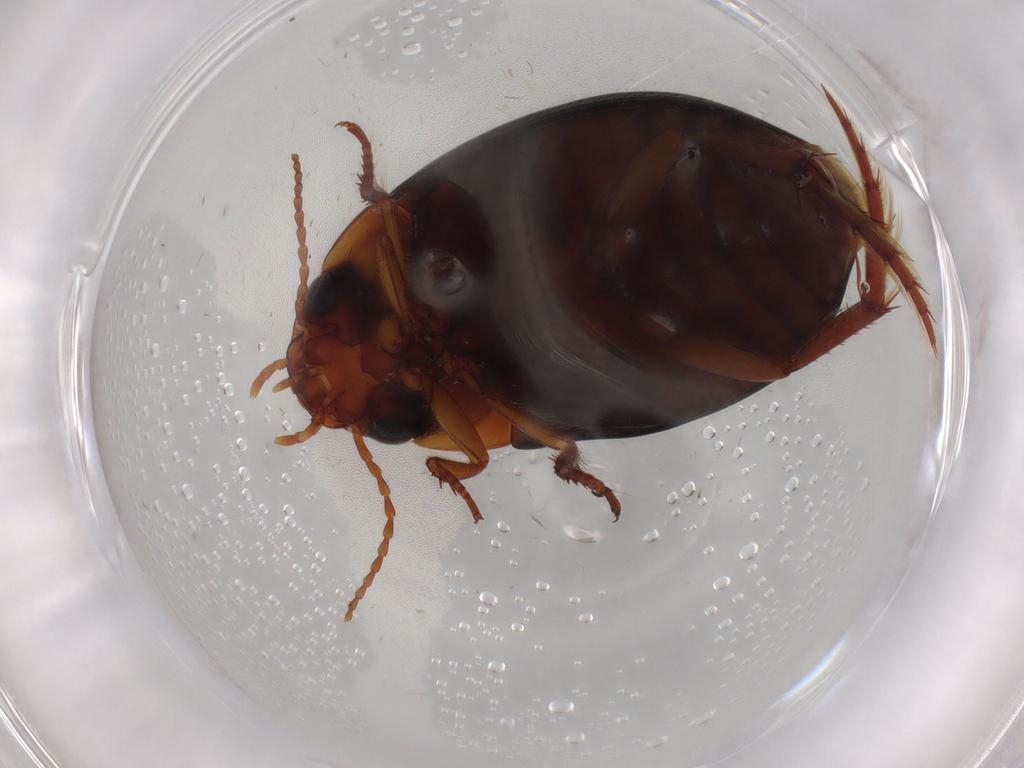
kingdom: Animalia
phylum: Arthropoda
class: Insecta
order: Coleoptera
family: Dytiscidae
